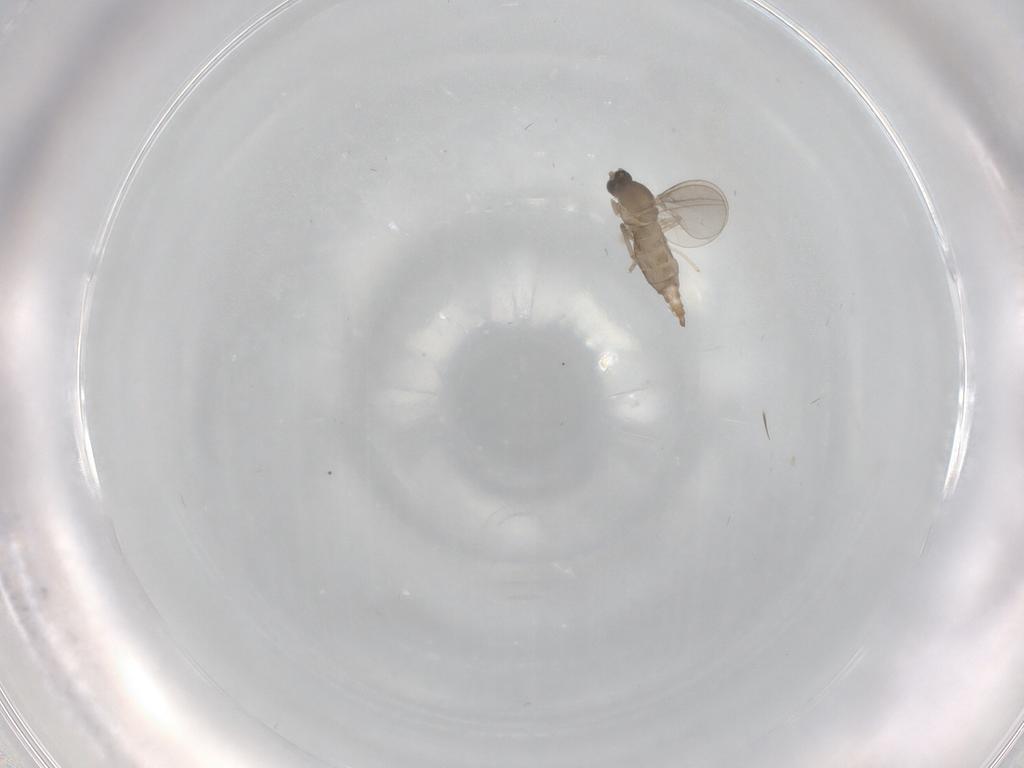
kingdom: Animalia
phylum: Arthropoda
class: Insecta
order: Diptera
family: Cecidomyiidae
